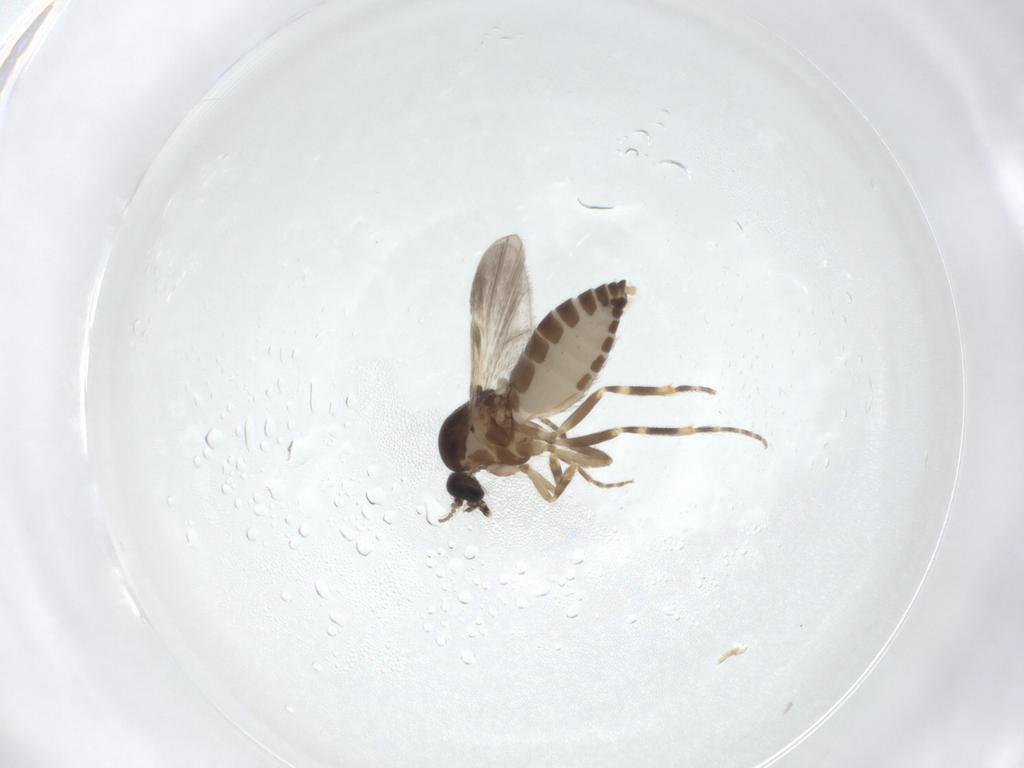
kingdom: Animalia
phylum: Arthropoda
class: Insecta
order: Diptera
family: Ceratopogonidae
